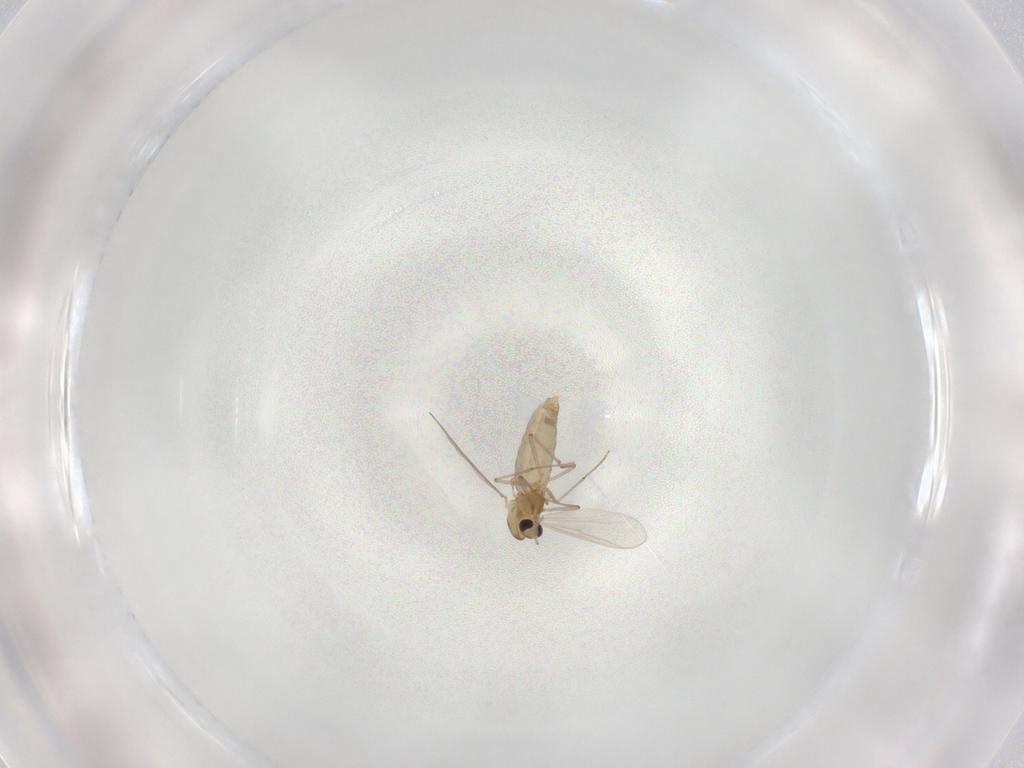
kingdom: Animalia
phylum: Arthropoda
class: Insecta
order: Diptera
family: Chironomidae
